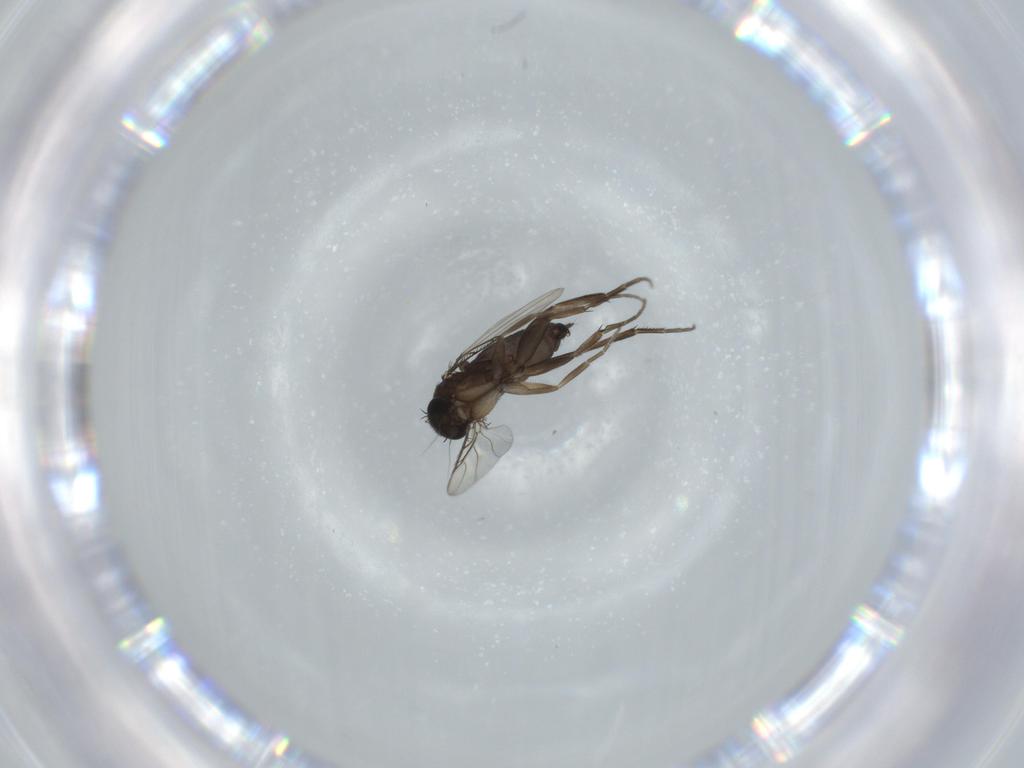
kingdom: Animalia
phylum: Arthropoda
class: Insecta
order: Diptera
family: Phoridae
